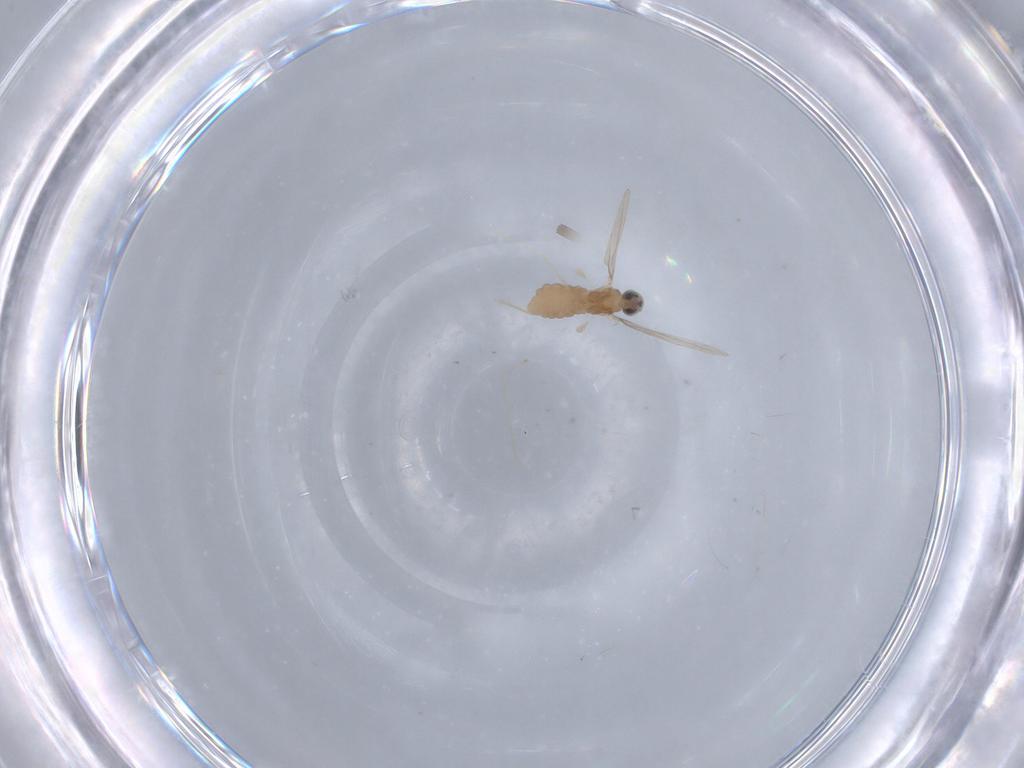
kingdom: Animalia
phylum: Arthropoda
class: Insecta
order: Diptera
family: Cecidomyiidae
